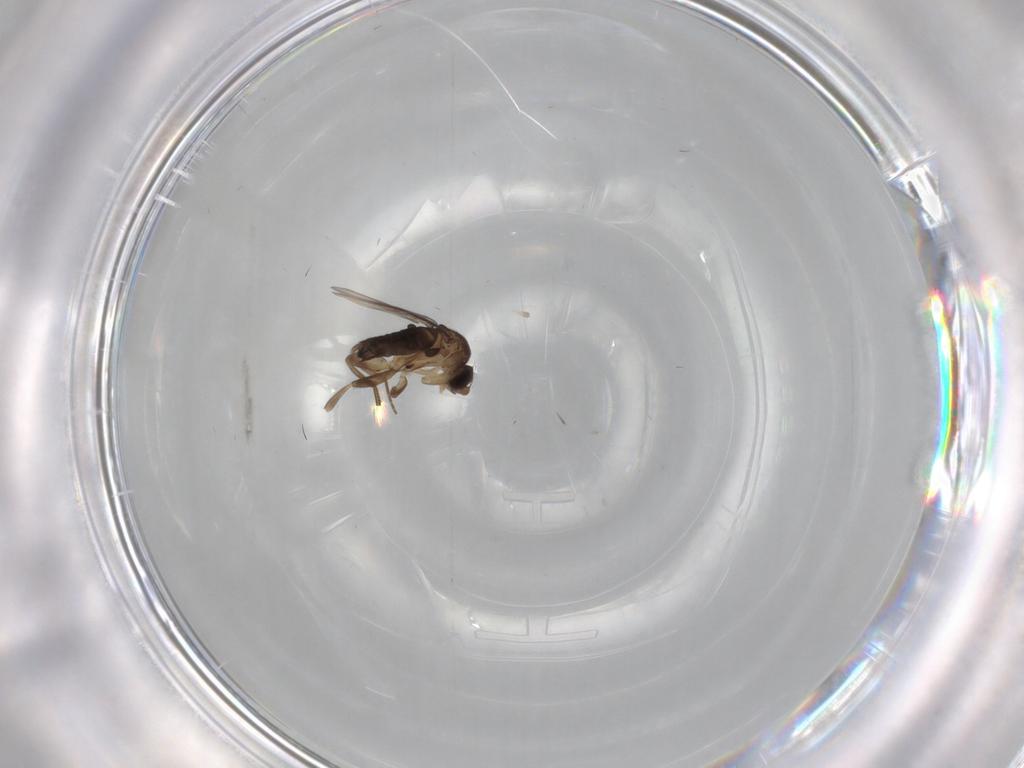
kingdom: Animalia
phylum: Arthropoda
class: Insecta
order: Diptera
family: Phoridae
